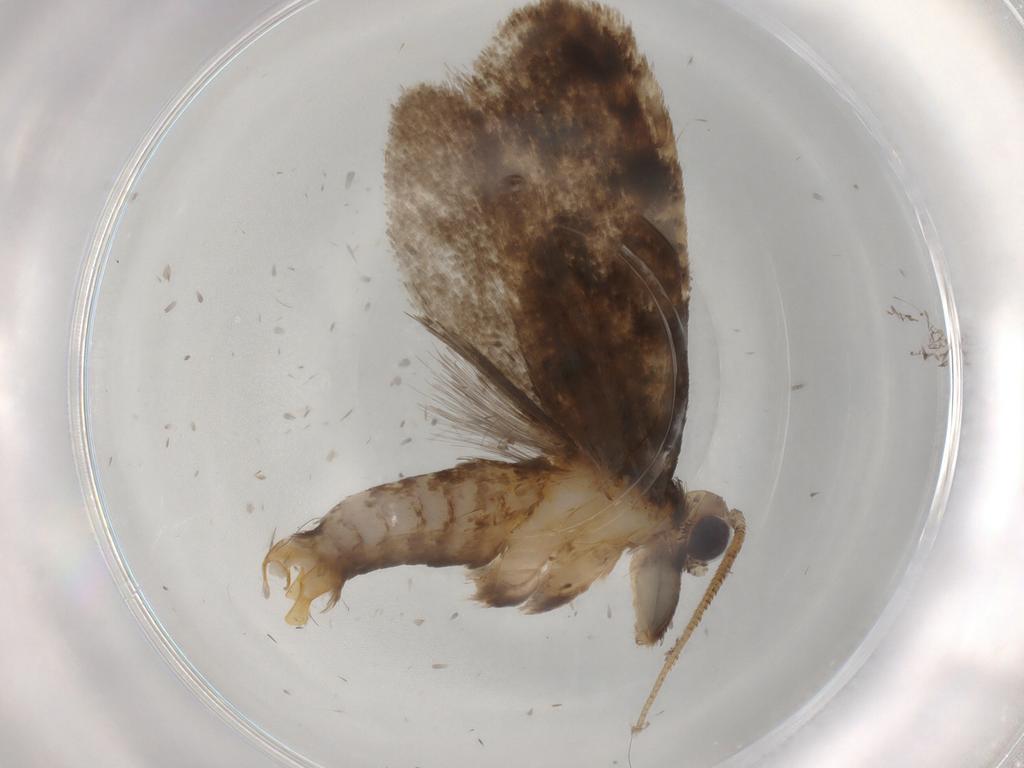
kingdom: Animalia
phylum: Arthropoda
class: Insecta
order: Lepidoptera
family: Tineidae
